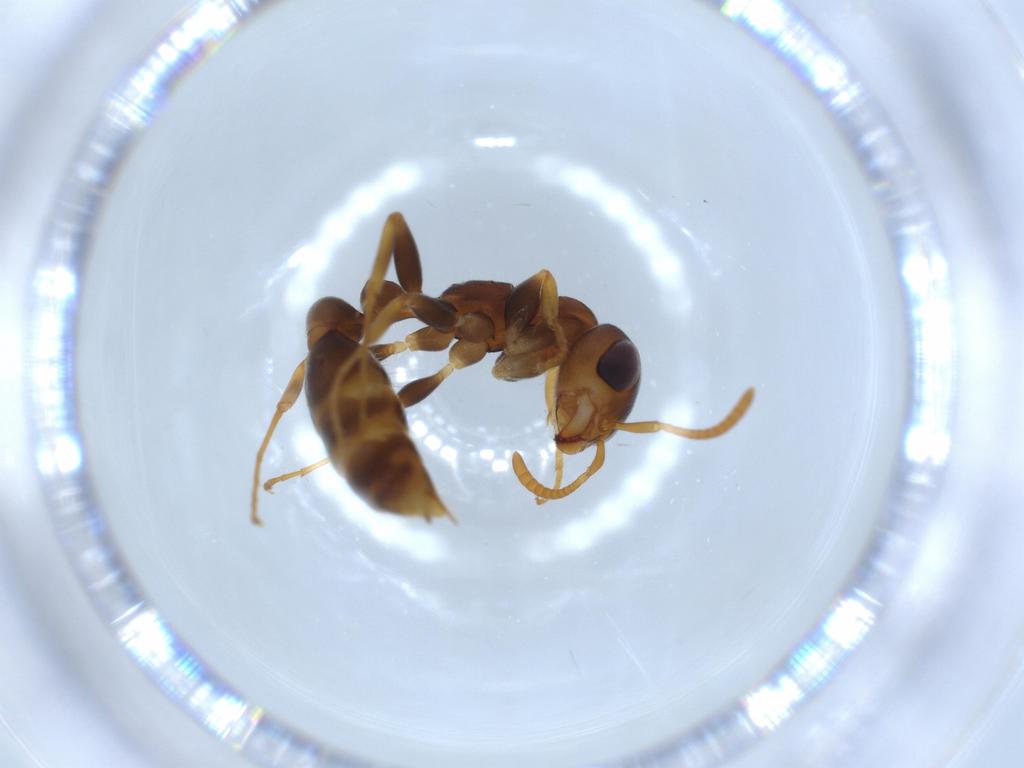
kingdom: Animalia
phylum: Arthropoda
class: Insecta
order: Hymenoptera
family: Formicidae
